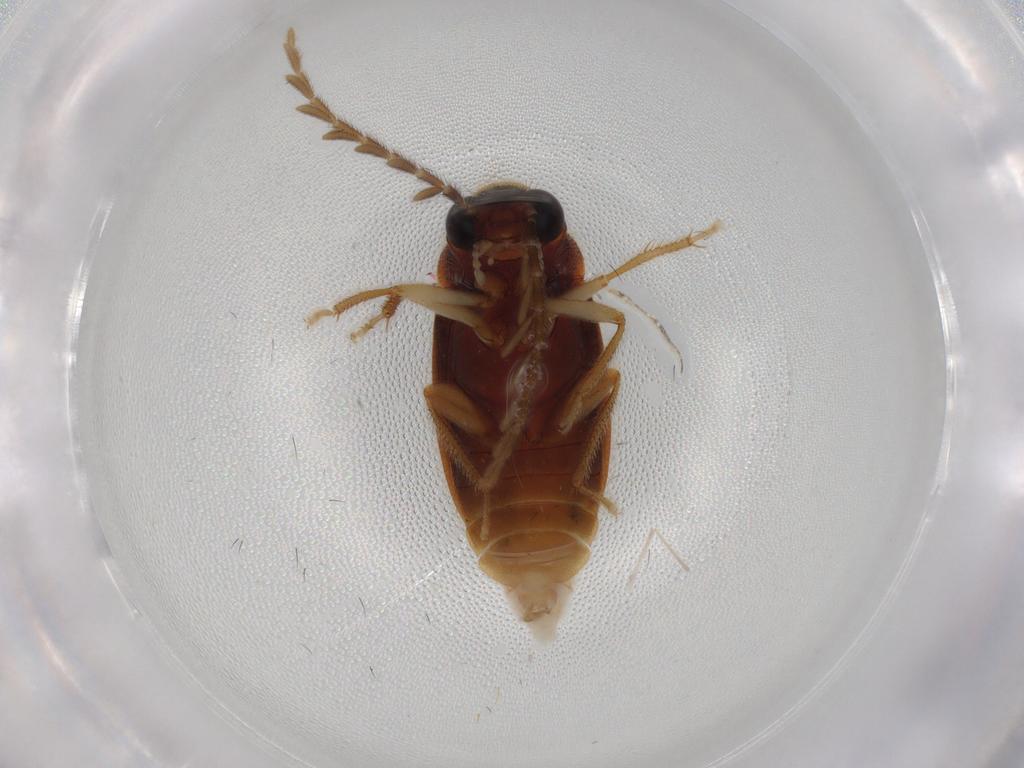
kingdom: Animalia
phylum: Arthropoda
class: Insecta
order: Coleoptera
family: Ptilodactylidae
